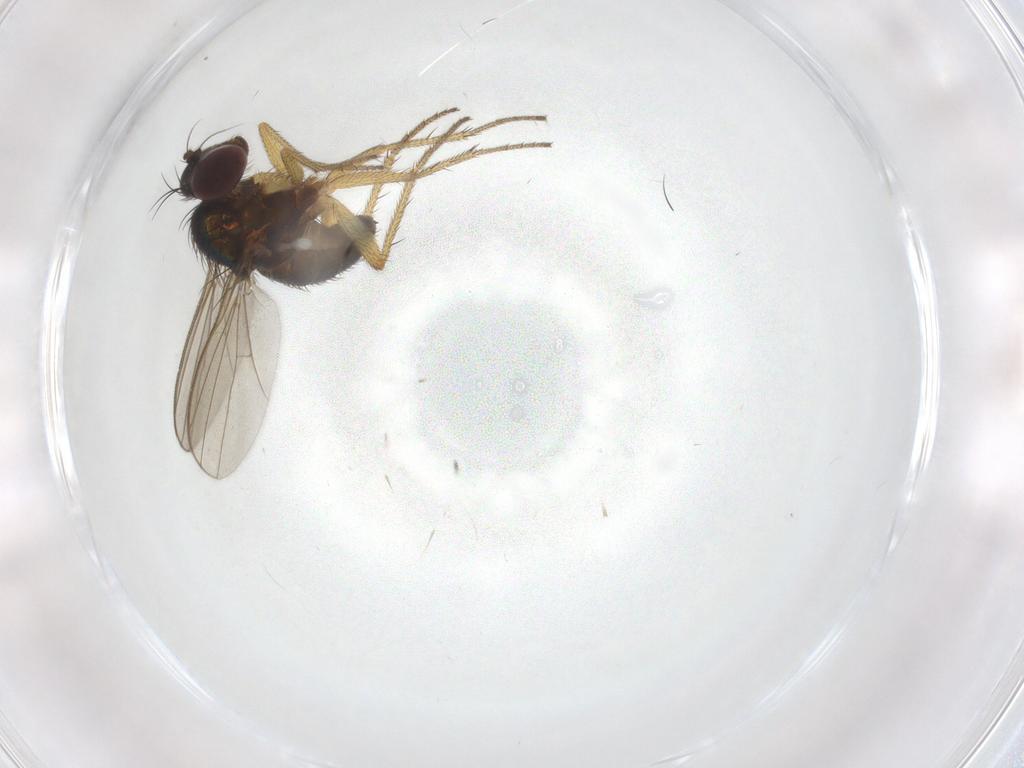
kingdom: Animalia
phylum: Arthropoda
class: Insecta
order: Diptera
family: Dolichopodidae
